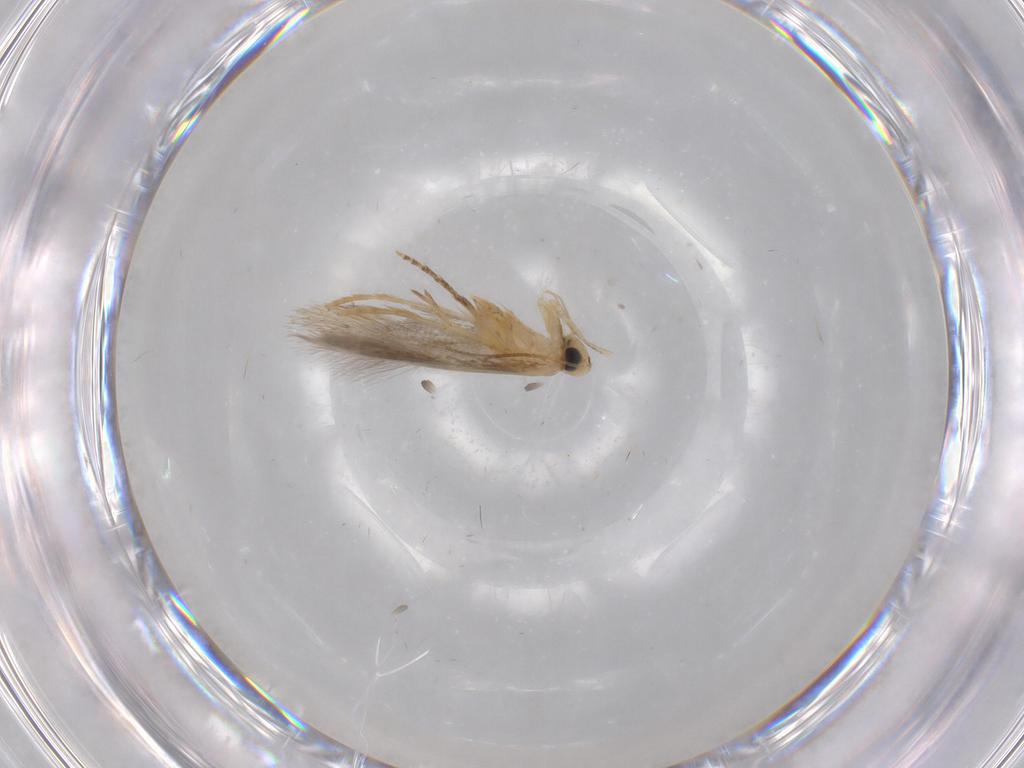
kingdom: Animalia
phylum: Arthropoda
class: Insecta
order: Lepidoptera
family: Tischeriidae
